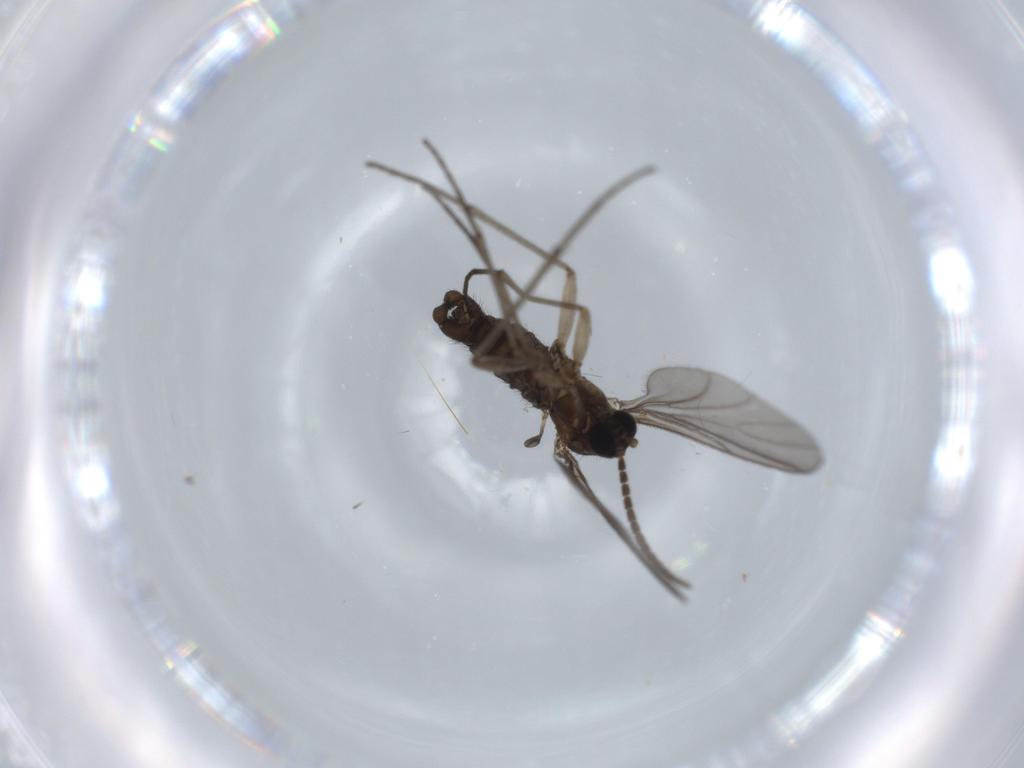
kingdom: Animalia
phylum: Arthropoda
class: Insecta
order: Diptera
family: Sciaridae
